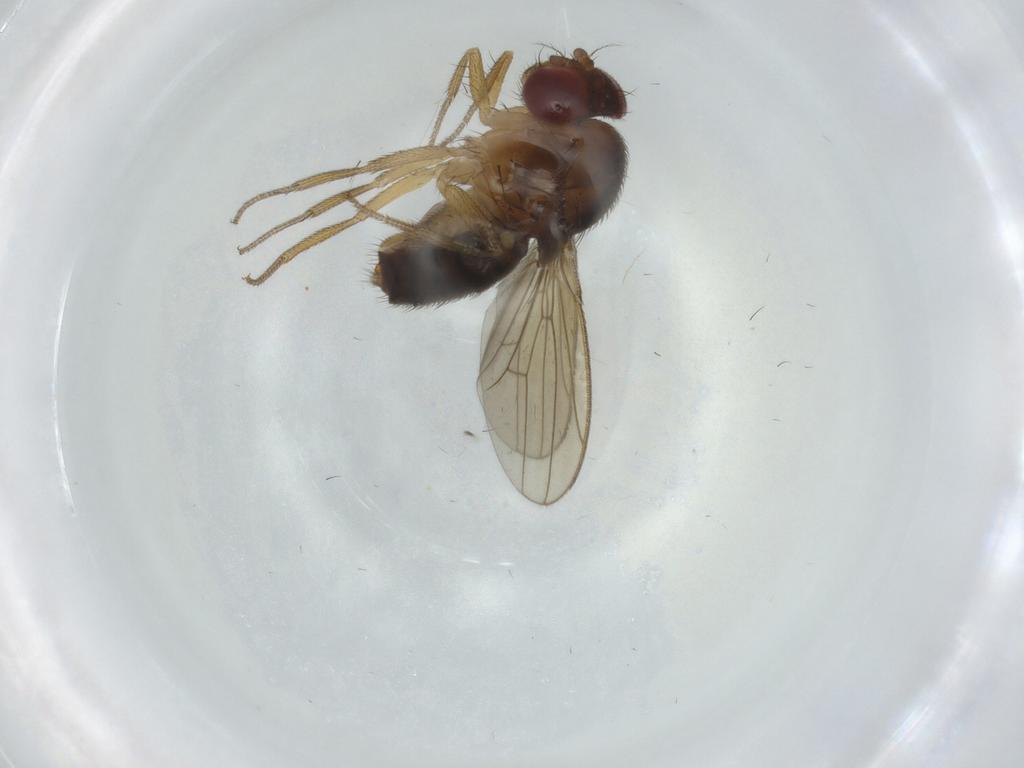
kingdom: Animalia
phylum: Arthropoda
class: Insecta
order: Diptera
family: Drosophilidae
